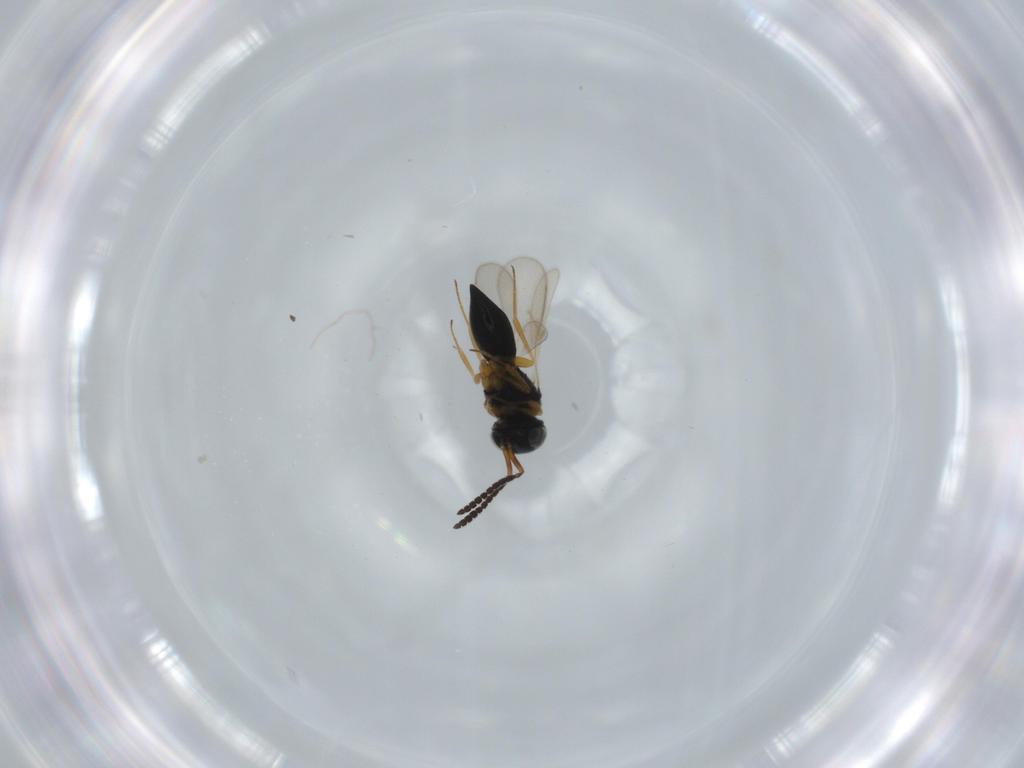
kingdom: Animalia
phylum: Arthropoda
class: Insecta
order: Hymenoptera
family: Scelionidae
